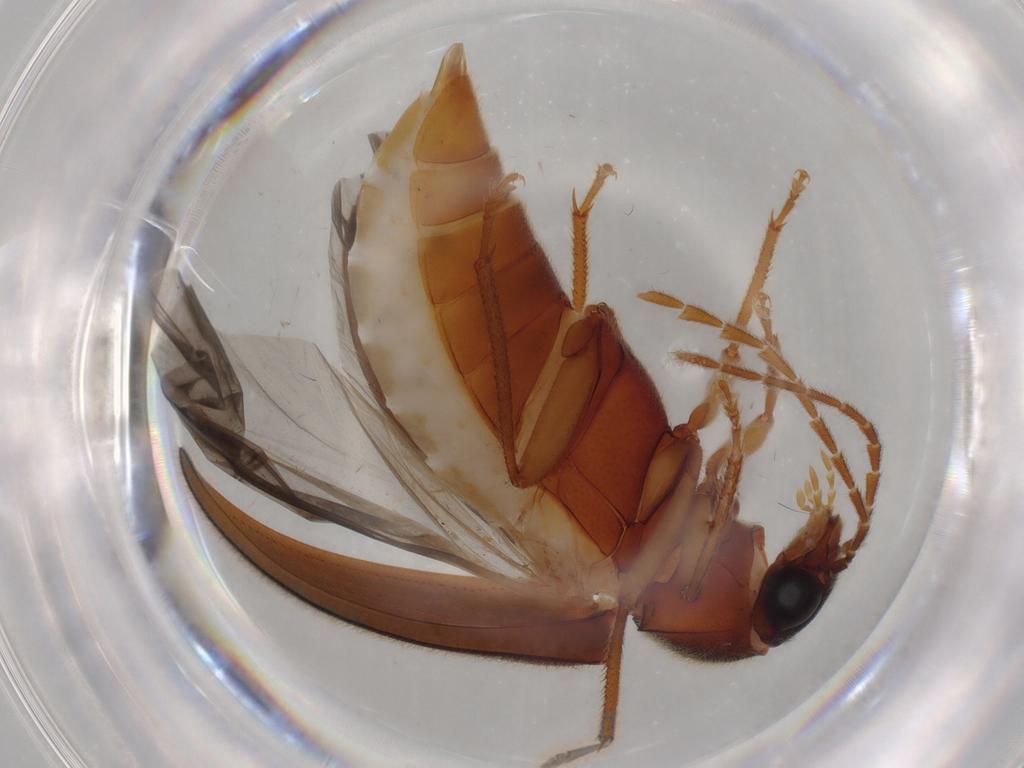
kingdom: Animalia
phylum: Arthropoda
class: Insecta
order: Coleoptera
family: Ptilodactylidae
